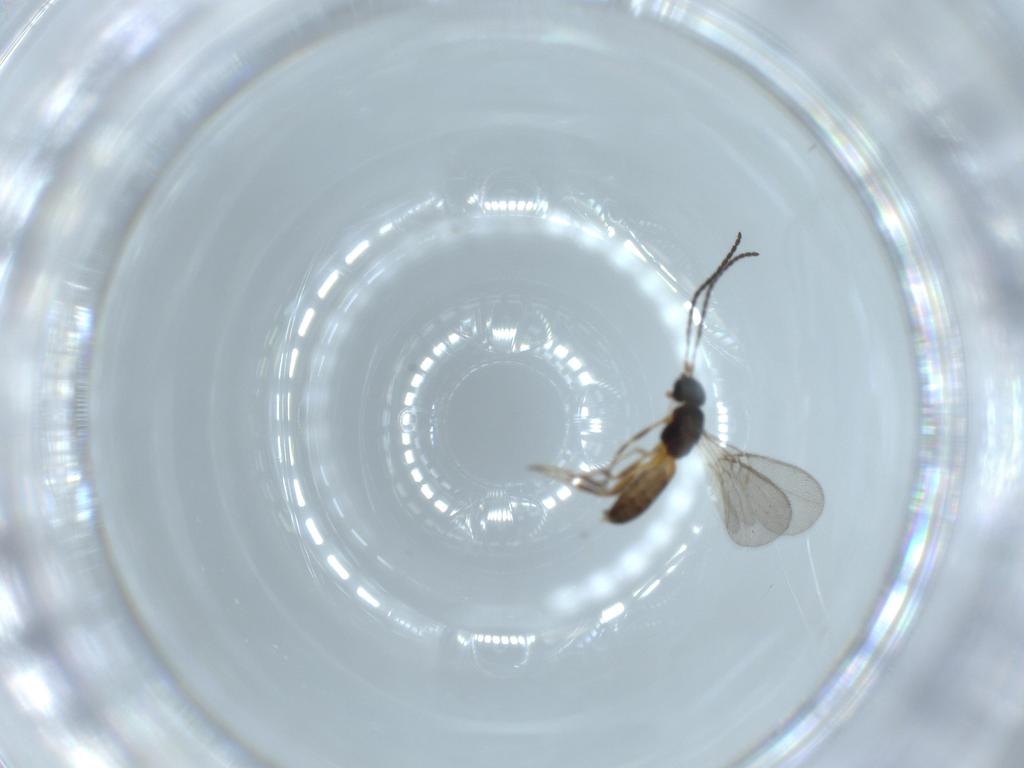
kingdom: Animalia
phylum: Arthropoda
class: Insecta
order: Hymenoptera
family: Braconidae
